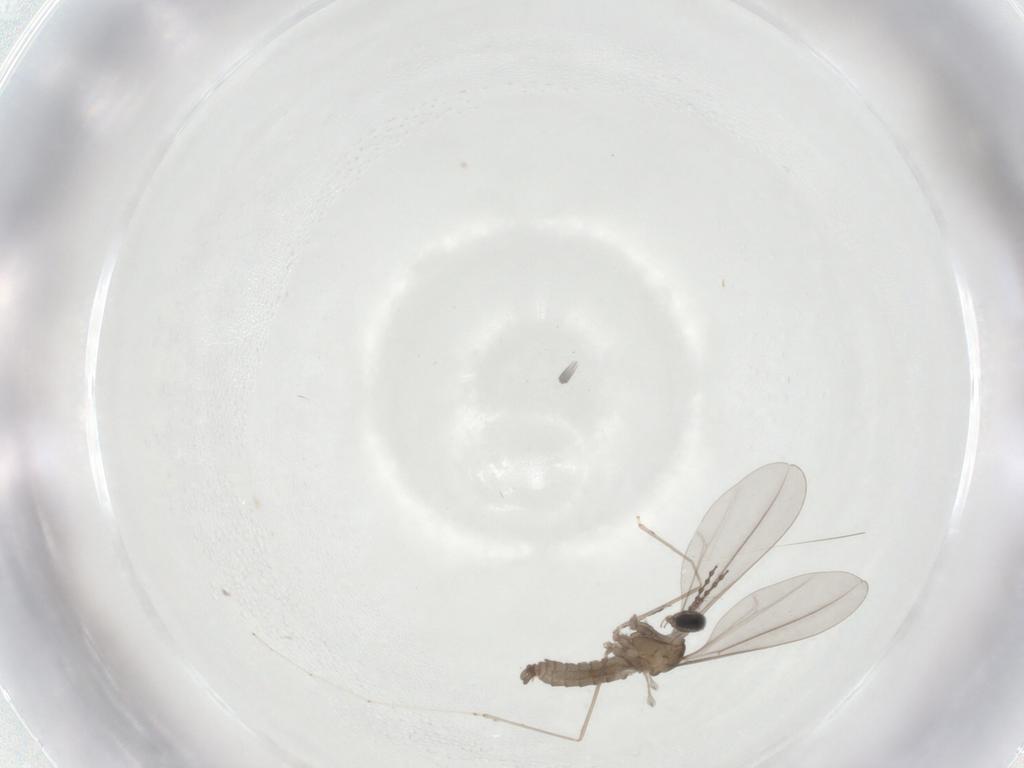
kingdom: Animalia
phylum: Arthropoda
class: Insecta
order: Diptera
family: Cecidomyiidae
